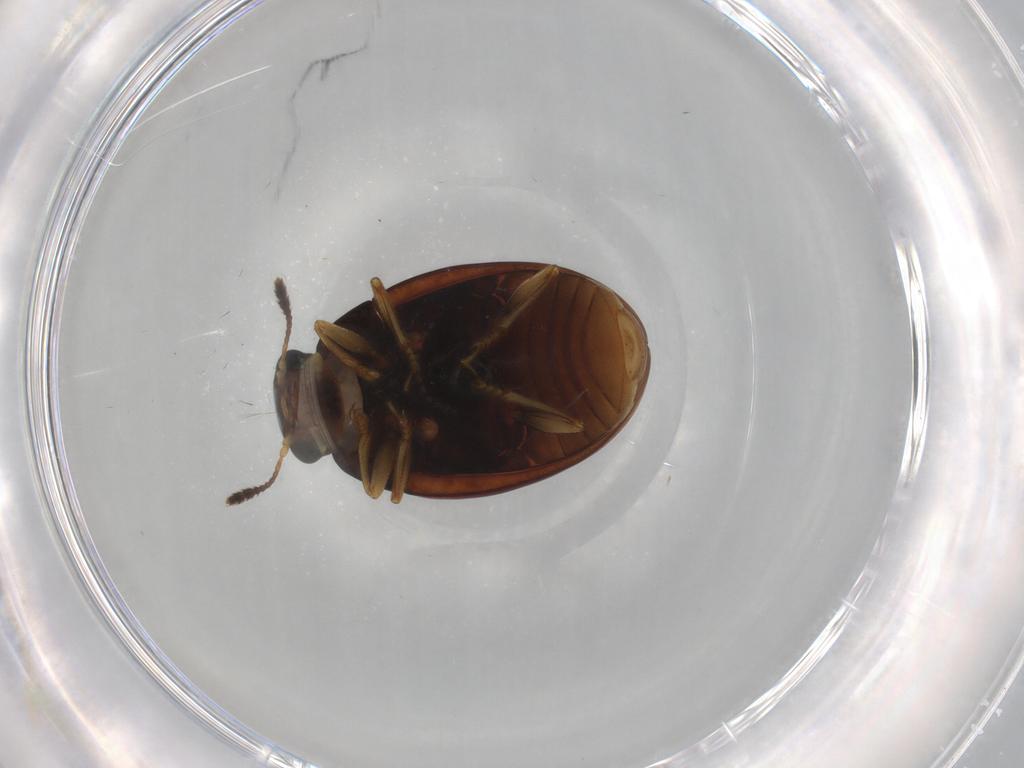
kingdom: Animalia
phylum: Arthropoda
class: Insecta
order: Coleoptera
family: Erotylidae
